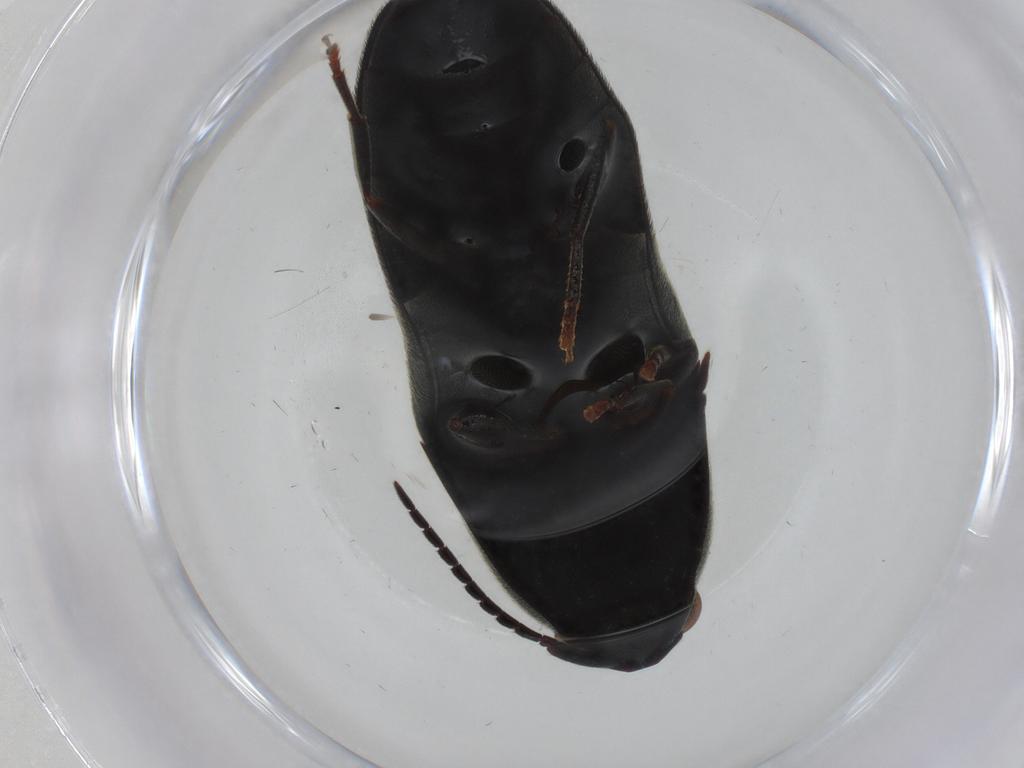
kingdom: Animalia
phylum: Arthropoda
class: Insecta
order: Coleoptera
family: Eucnemidae
